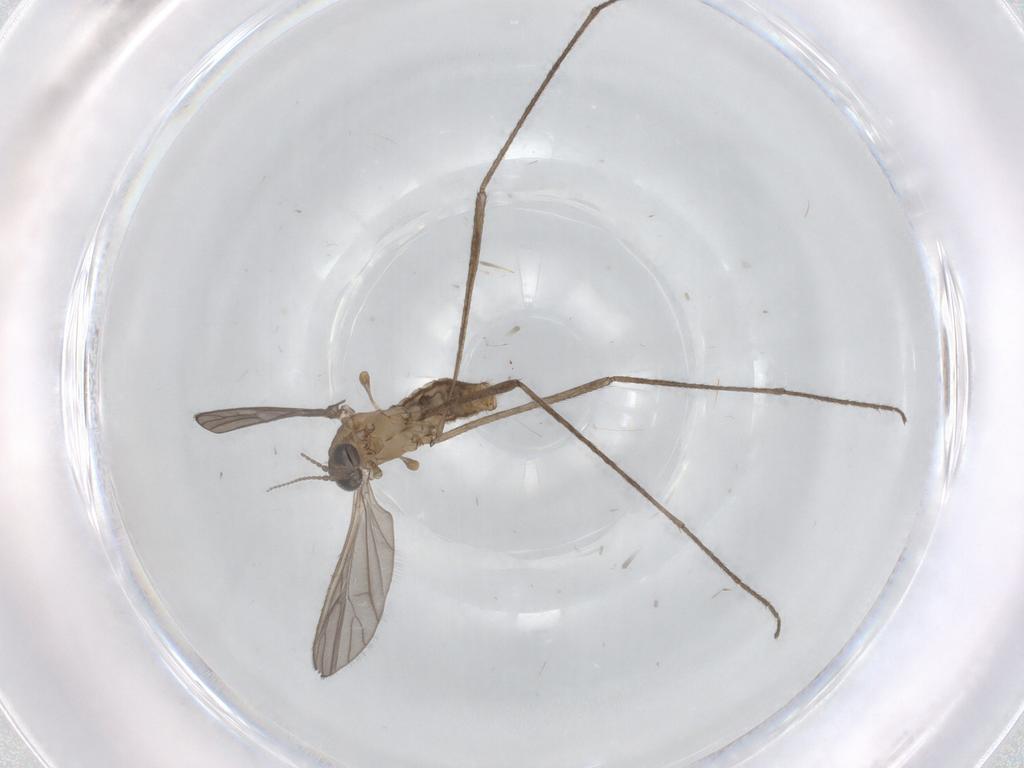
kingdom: Animalia
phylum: Arthropoda
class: Insecta
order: Diptera
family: Limoniidae
